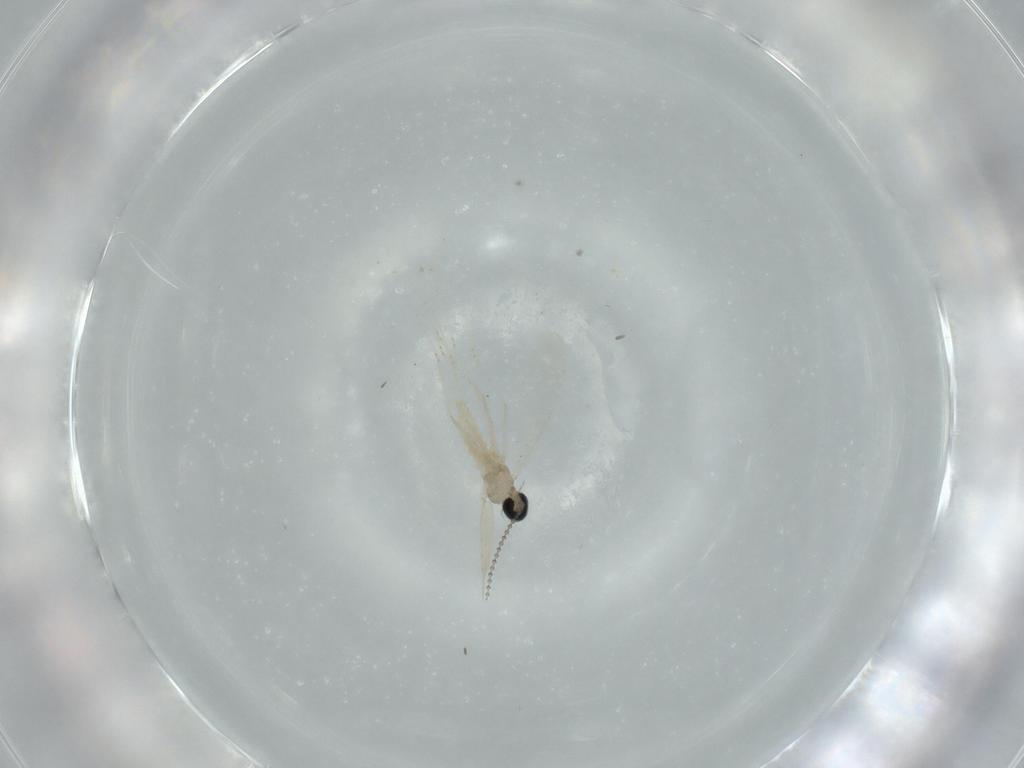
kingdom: Animalia
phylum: Arthropoda
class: Insecta
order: Diptera
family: Cecidomyiidae
